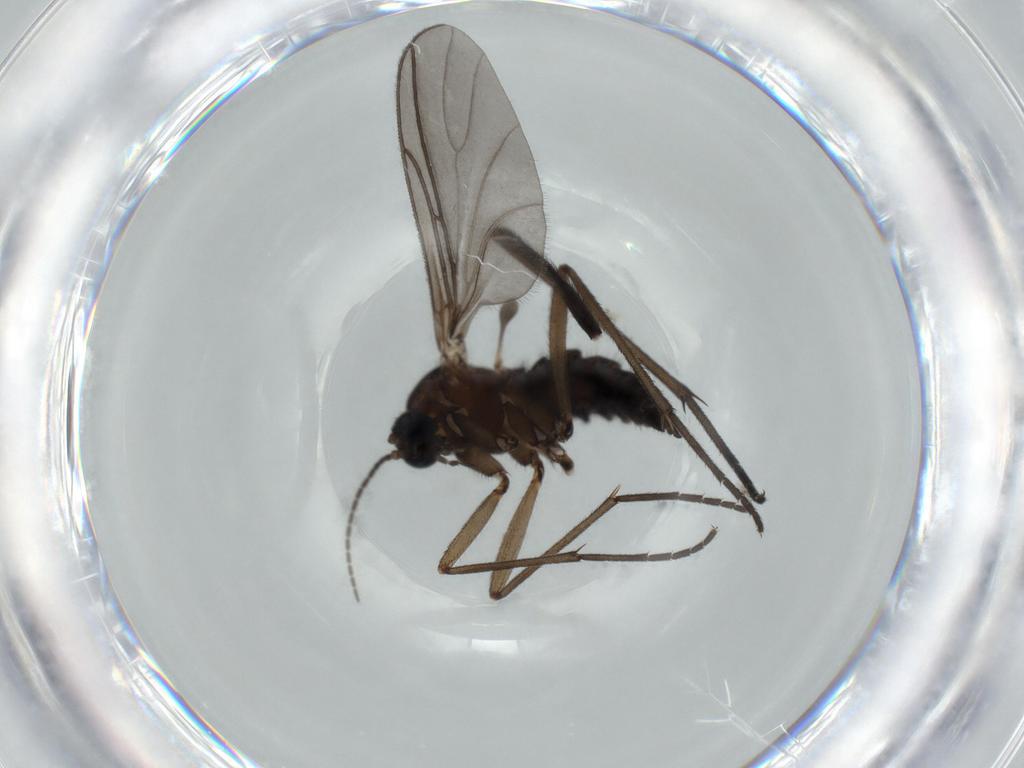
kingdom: Animalia
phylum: Arthropoda
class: Insecta
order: Diptera
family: Sciaridae
